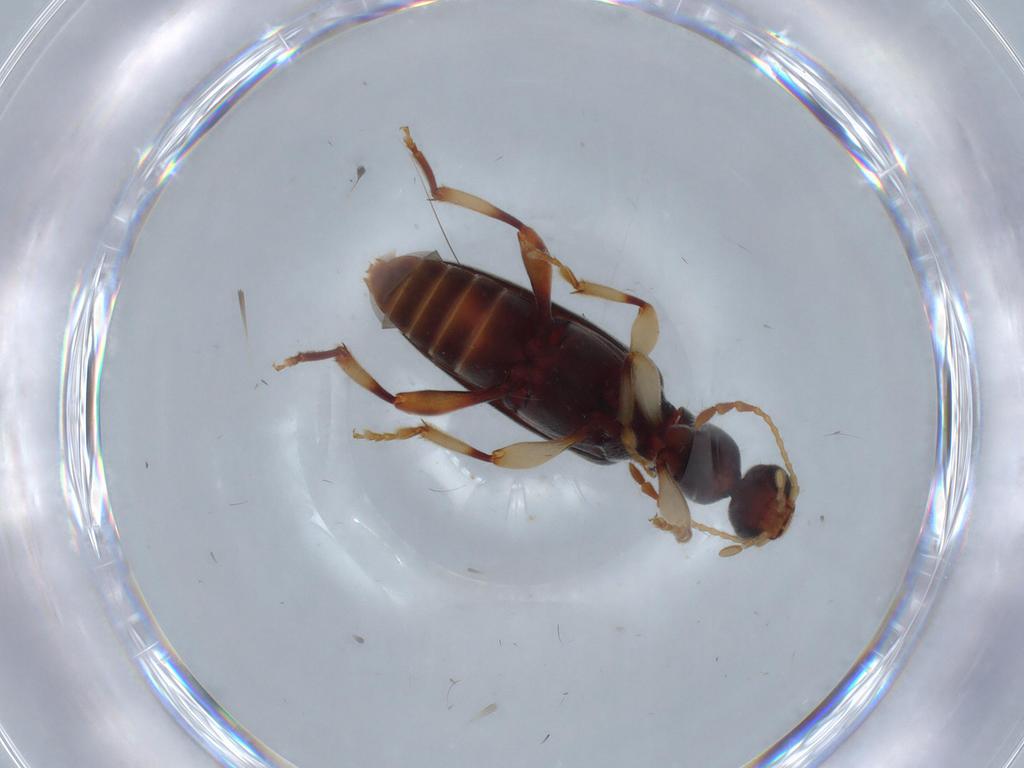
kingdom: Animalia
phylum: Arthropoda
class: Insecta
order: Coleoptera
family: Anthicidae
